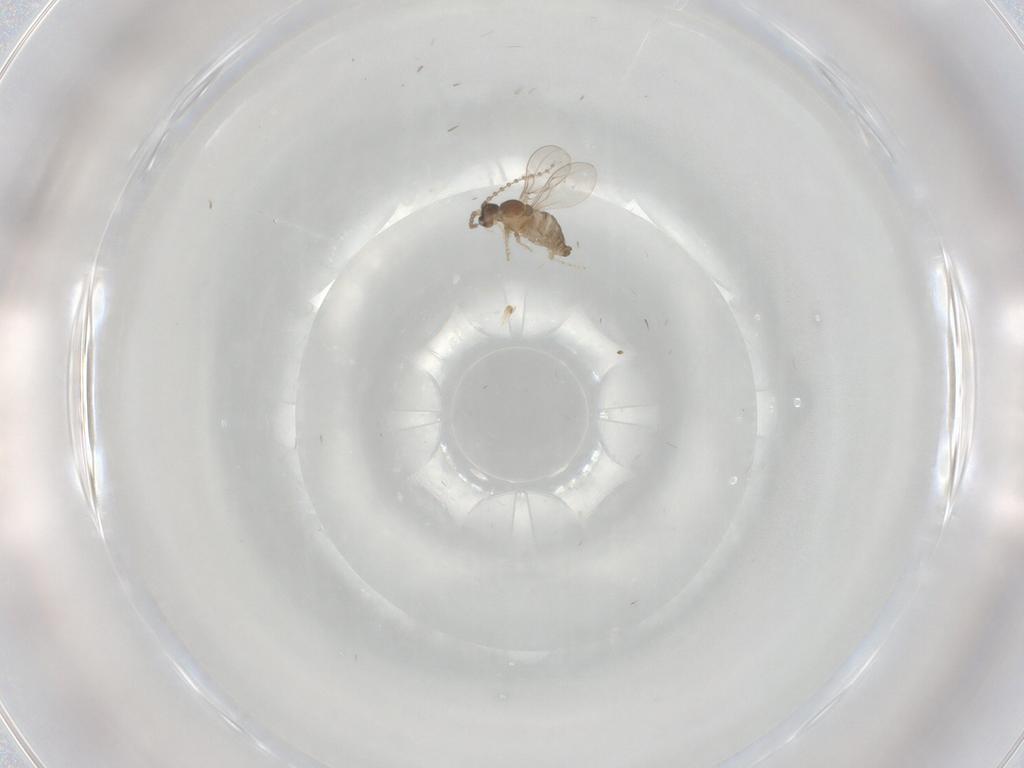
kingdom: Animalia
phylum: Arthropoda
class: Insecta
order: Diptera
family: Cecidomyiidae
